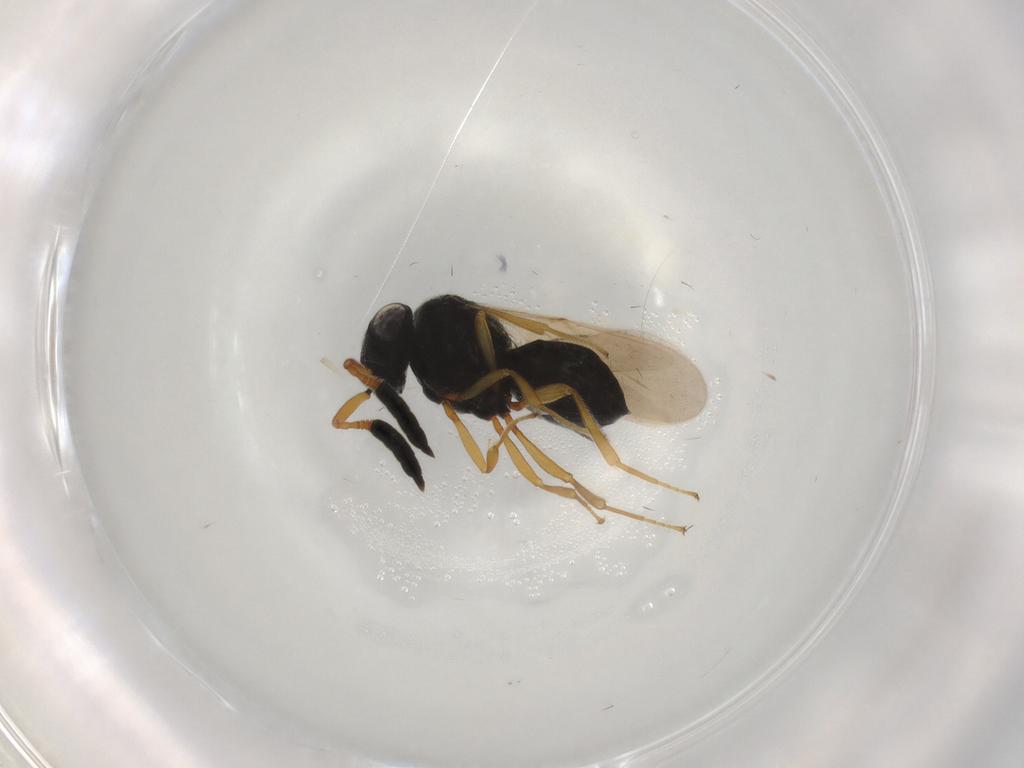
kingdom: Animalia
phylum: Arthropoda
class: Insecta
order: Hymenoptera
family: Scelionidae
